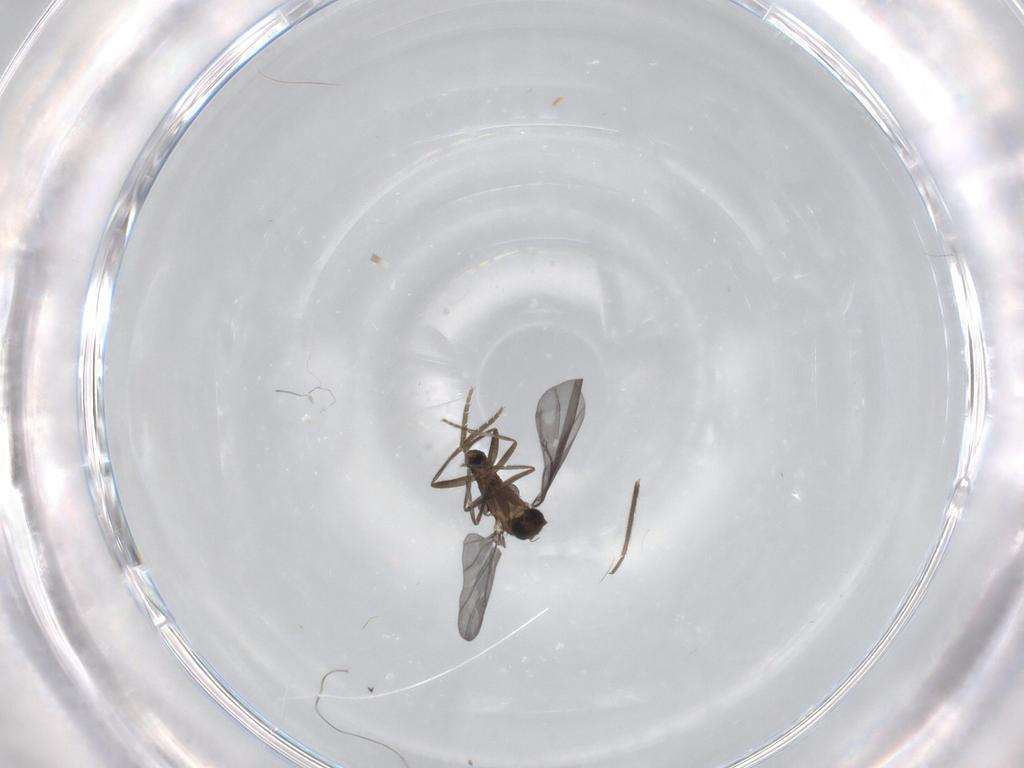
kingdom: Animalia
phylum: Arthropoda
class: Insecta
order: Diptera
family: Phoridae
